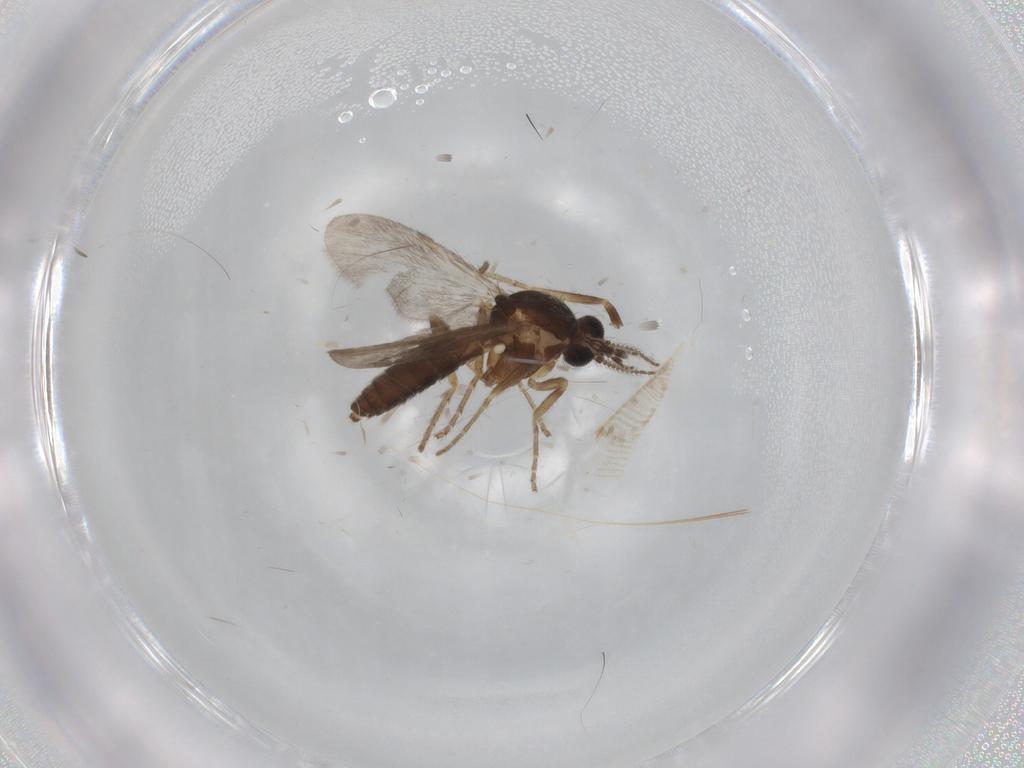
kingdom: Animalia
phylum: Arthropoda
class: Insecta
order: Diptera
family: Ceratopogonidae
